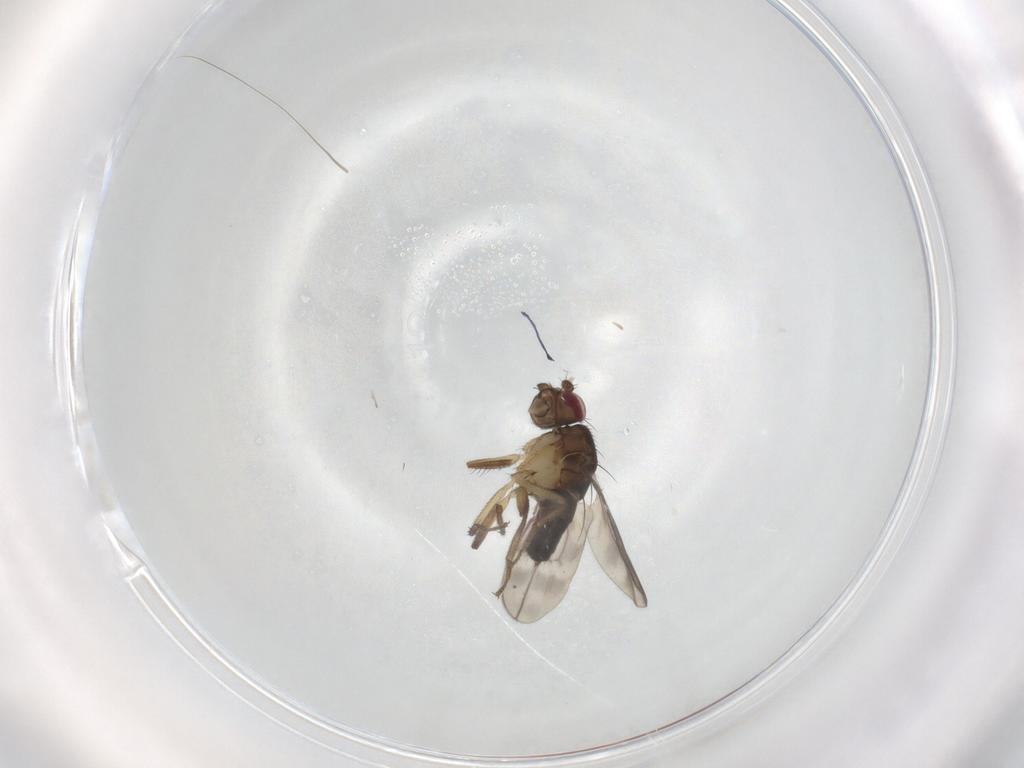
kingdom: Animalia
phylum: Arthropoda
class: Insecta
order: Diptera
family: Sphaeroceridae
